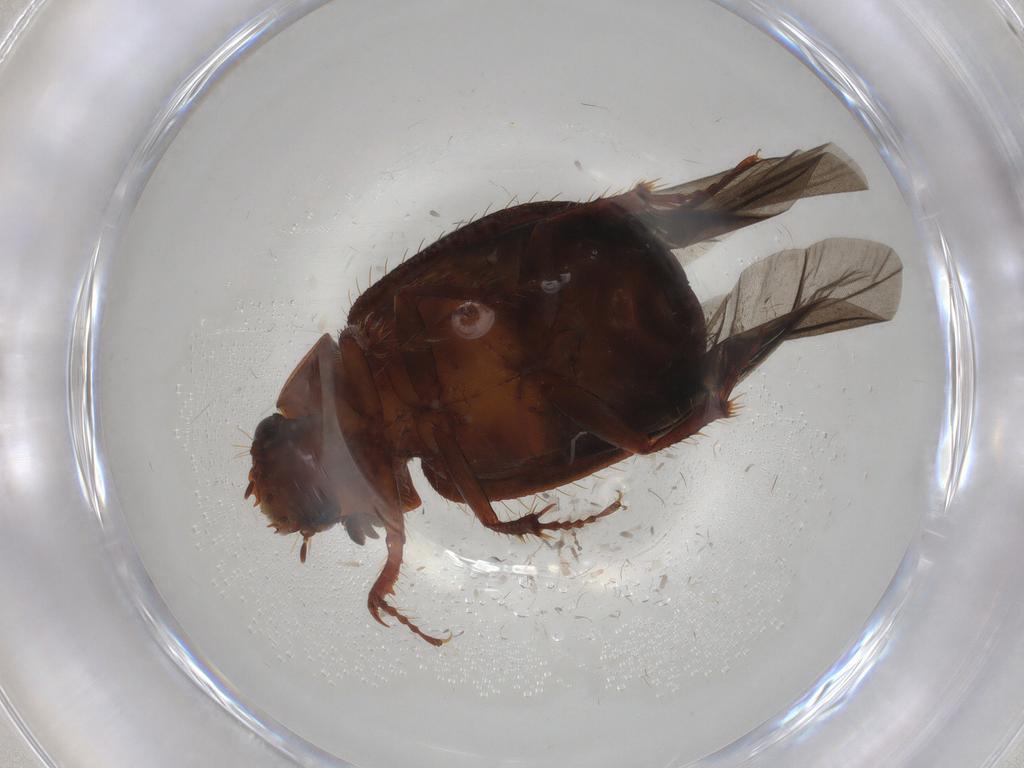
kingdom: Animalia
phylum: Arthropoda
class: Insecta
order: Coleoptera
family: Hybosoridae
